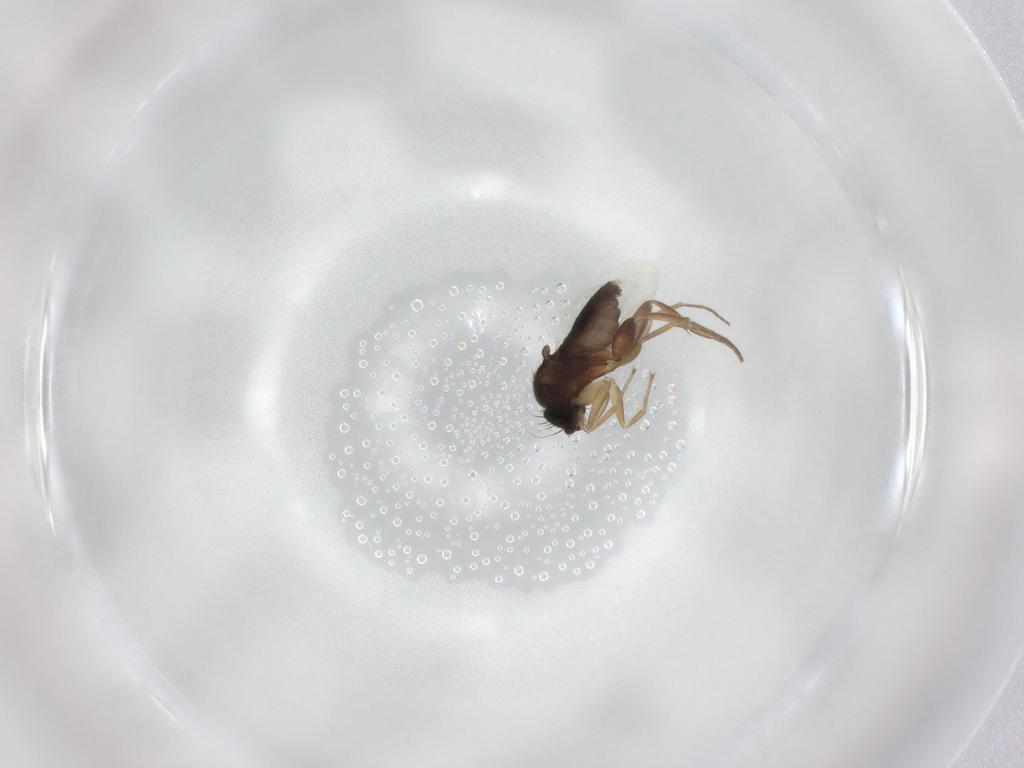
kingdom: Animalia
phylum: Arthropoda
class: Insecta
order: Diptera
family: Phoridae
